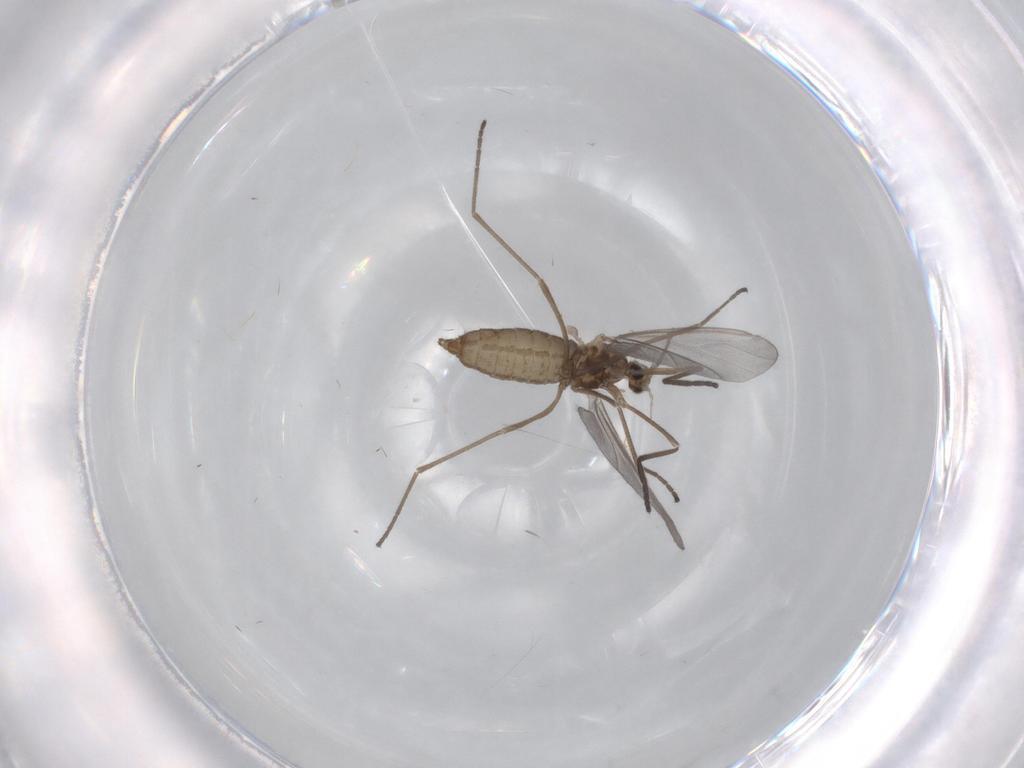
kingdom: Animalia
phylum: Arthropoda
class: Insecta
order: Diptera
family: Cecidomyiidae
